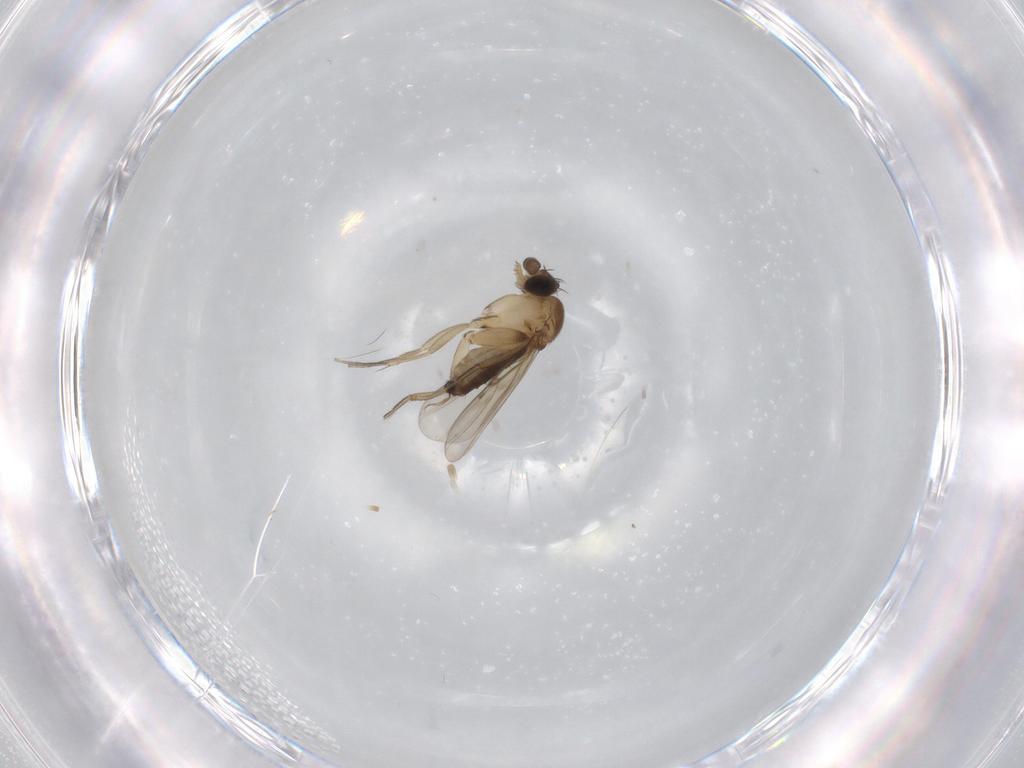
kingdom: Animalia
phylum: Arthropoda
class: Insecta
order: Diptera
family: Phoridae
